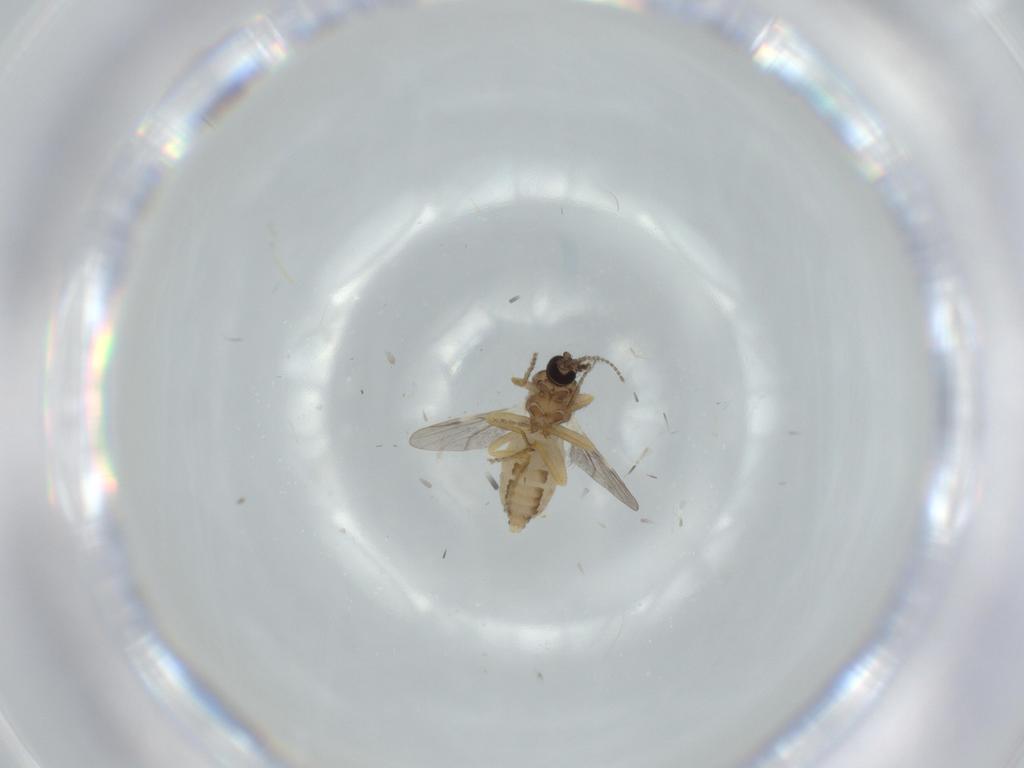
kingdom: Animalia
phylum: Arthropoda
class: Insecta
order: Diptera
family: Ceratopogonidae
